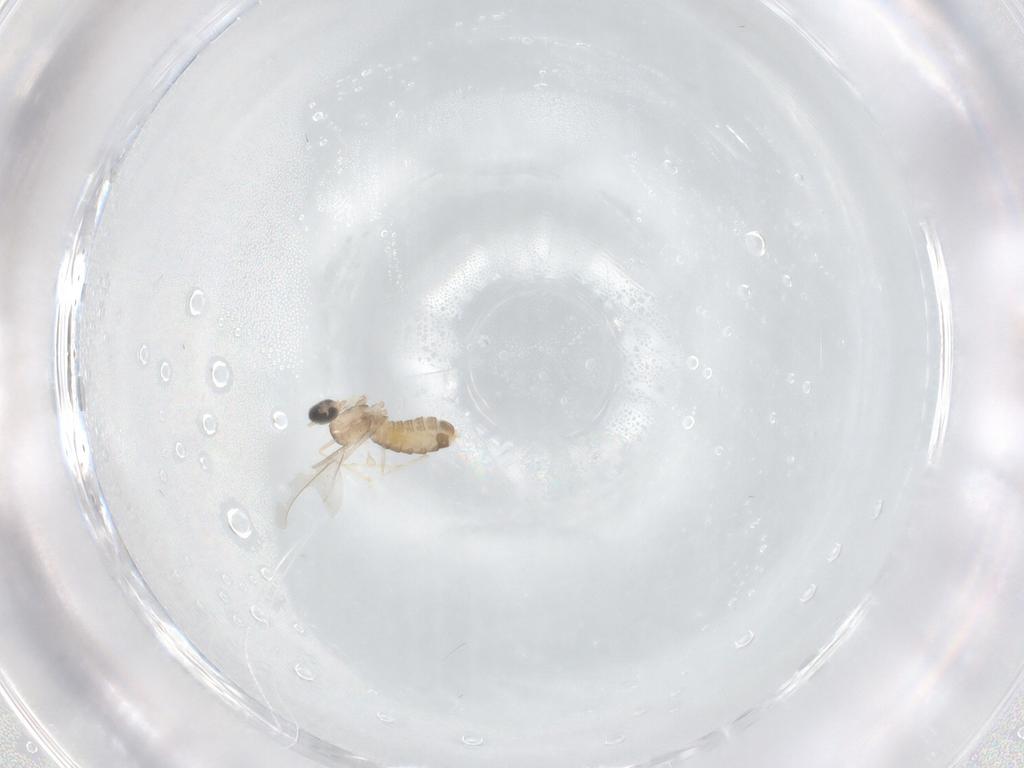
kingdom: Animalia
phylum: Arthropoda
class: Insecta
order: Diptera
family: Cecidomyiidae
